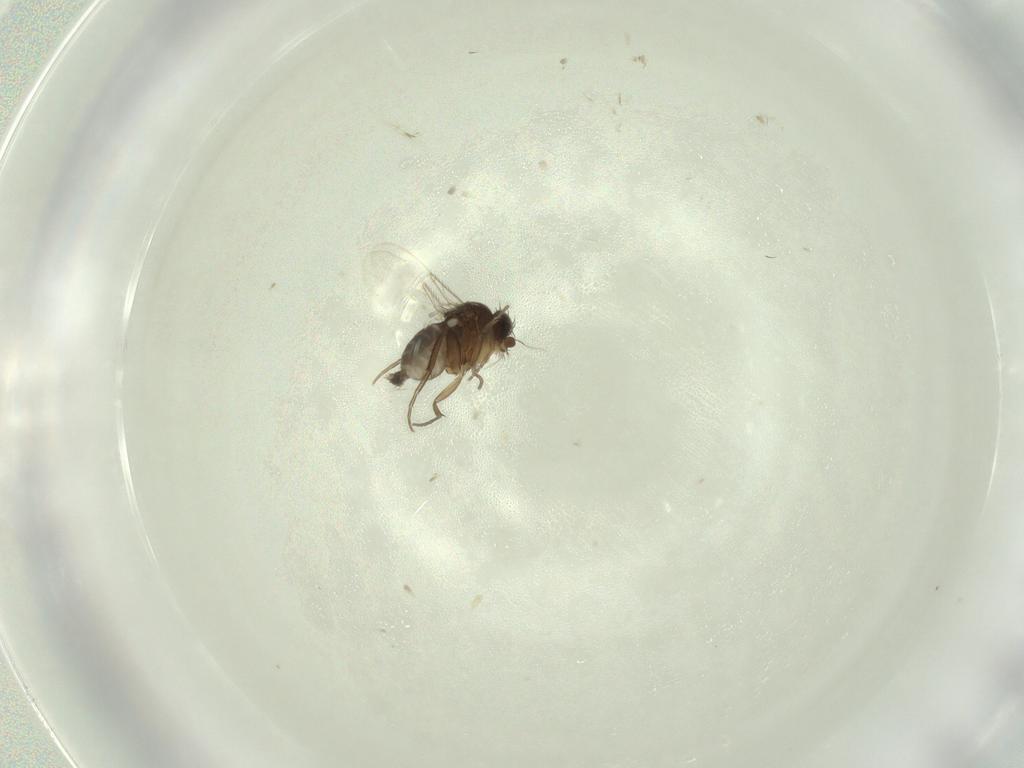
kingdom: Animalia
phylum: Arthropoda
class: Insecta
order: Diptera
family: Phoridae
